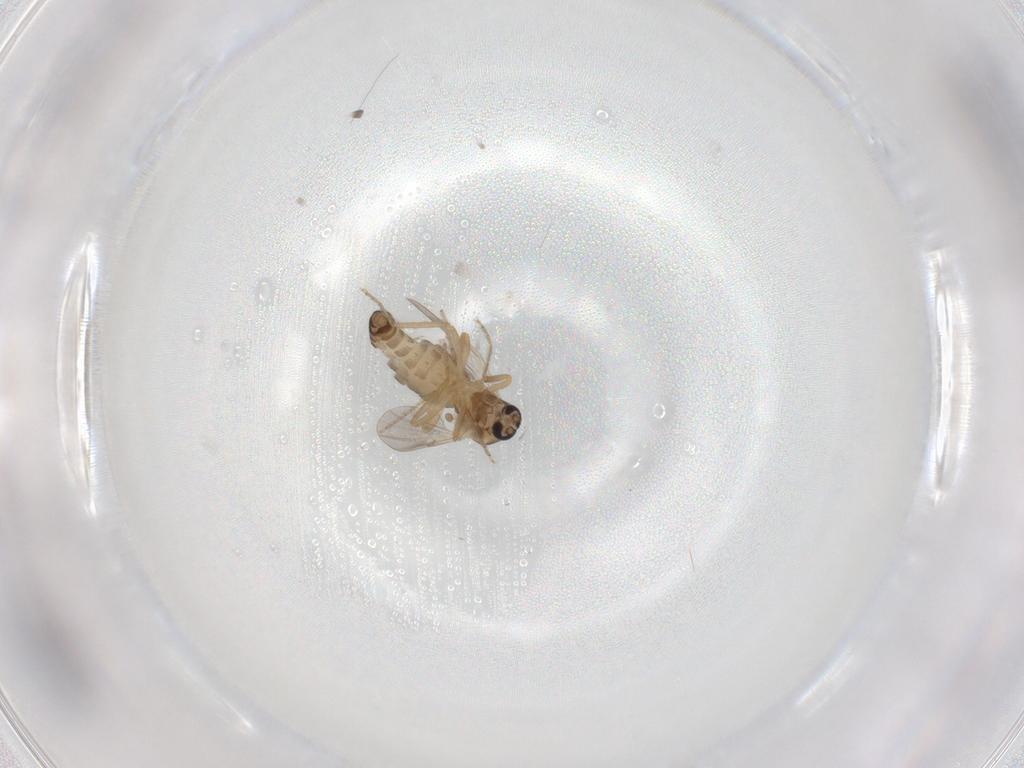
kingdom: Animalia
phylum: Arthropoda
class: Insecta
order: Diptera
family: Ceratopogonidae
